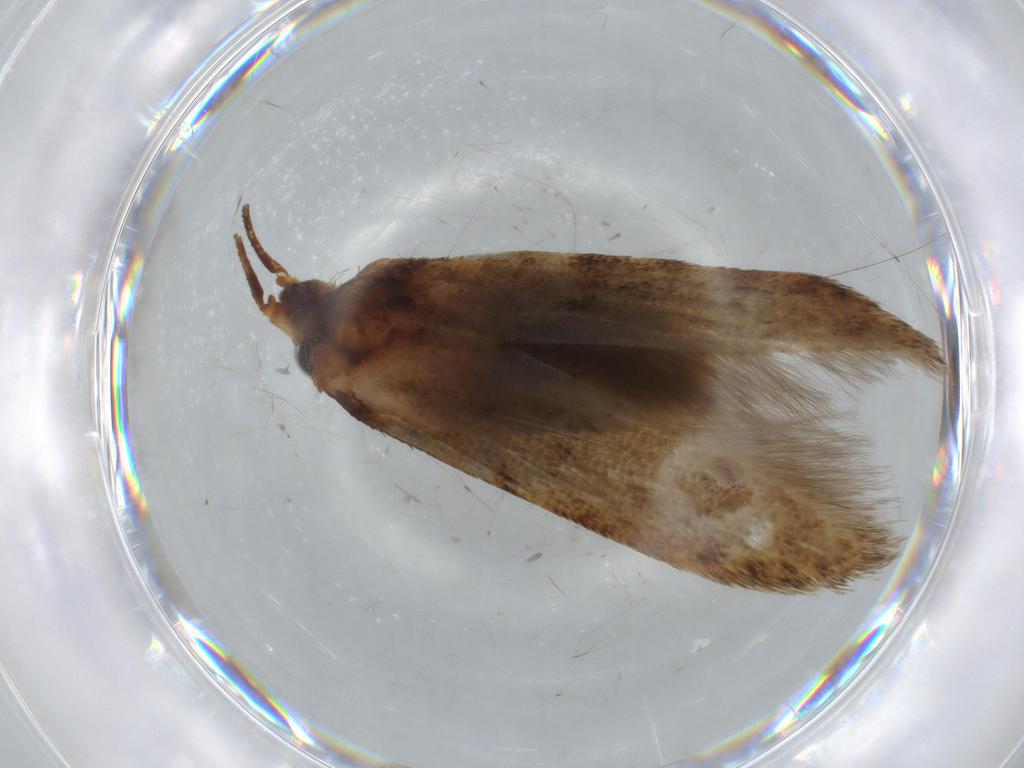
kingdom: Animalia
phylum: Arthropoda
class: Insecta
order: Lepidoptera
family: Blastobasidae
